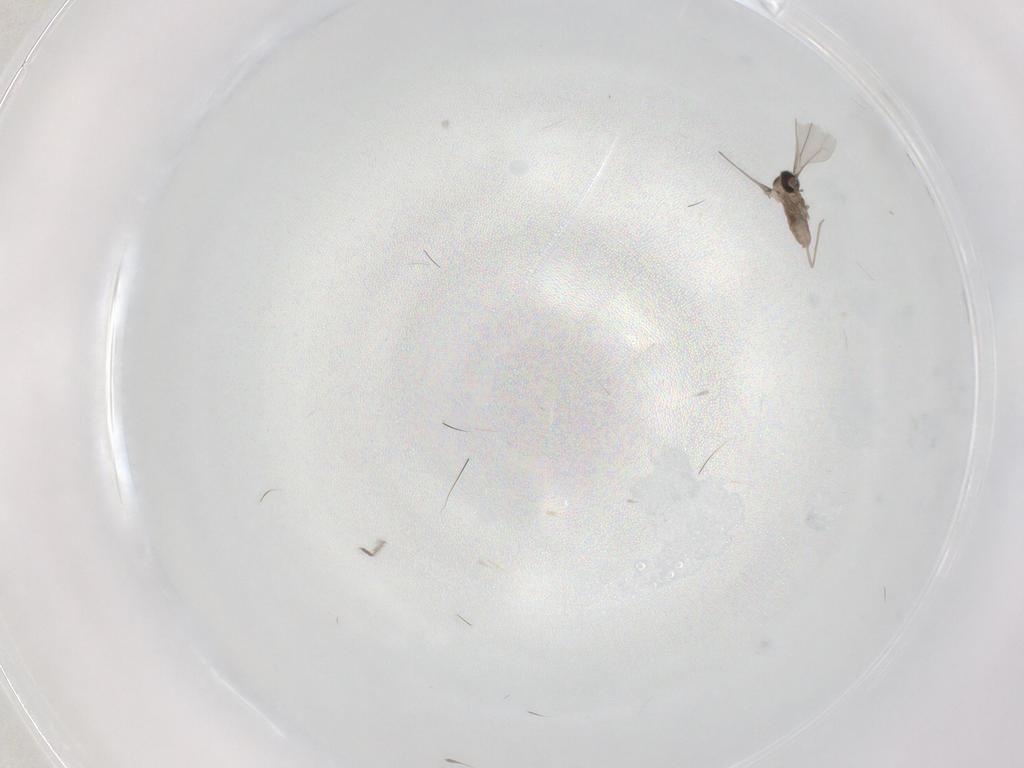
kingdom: Animalia
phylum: Arthropoda
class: Insecta
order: Diptera
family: Chironomidae
